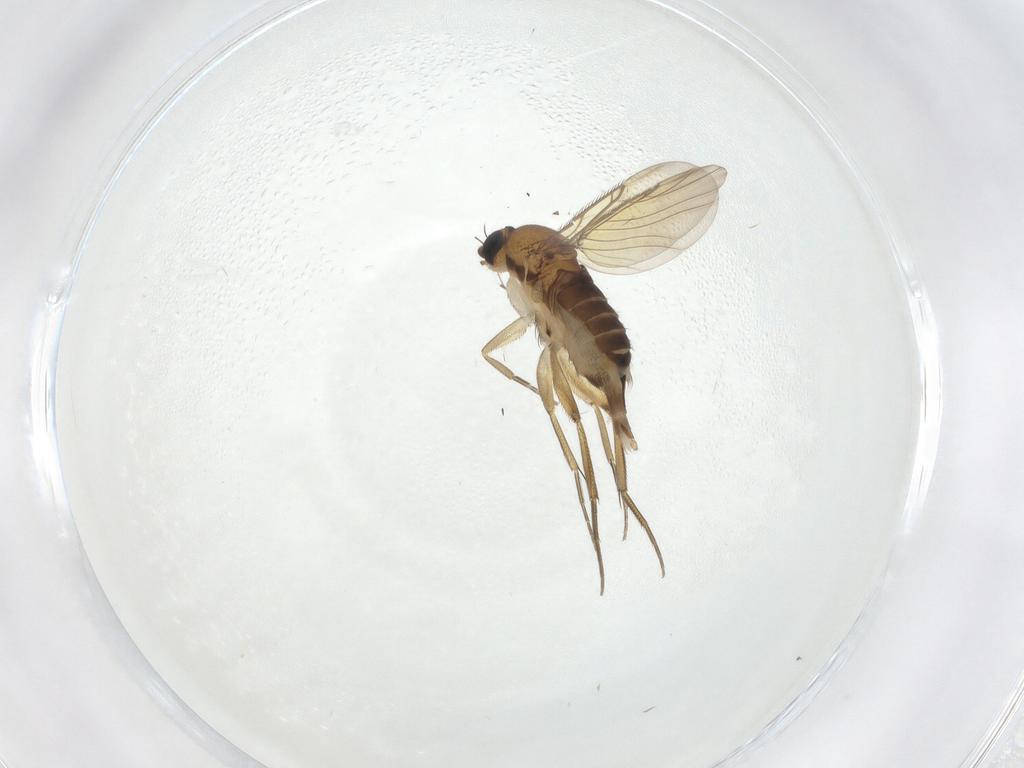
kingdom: Animalia
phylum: Arthropoda
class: Insecta
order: Diptera
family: Phoridae
